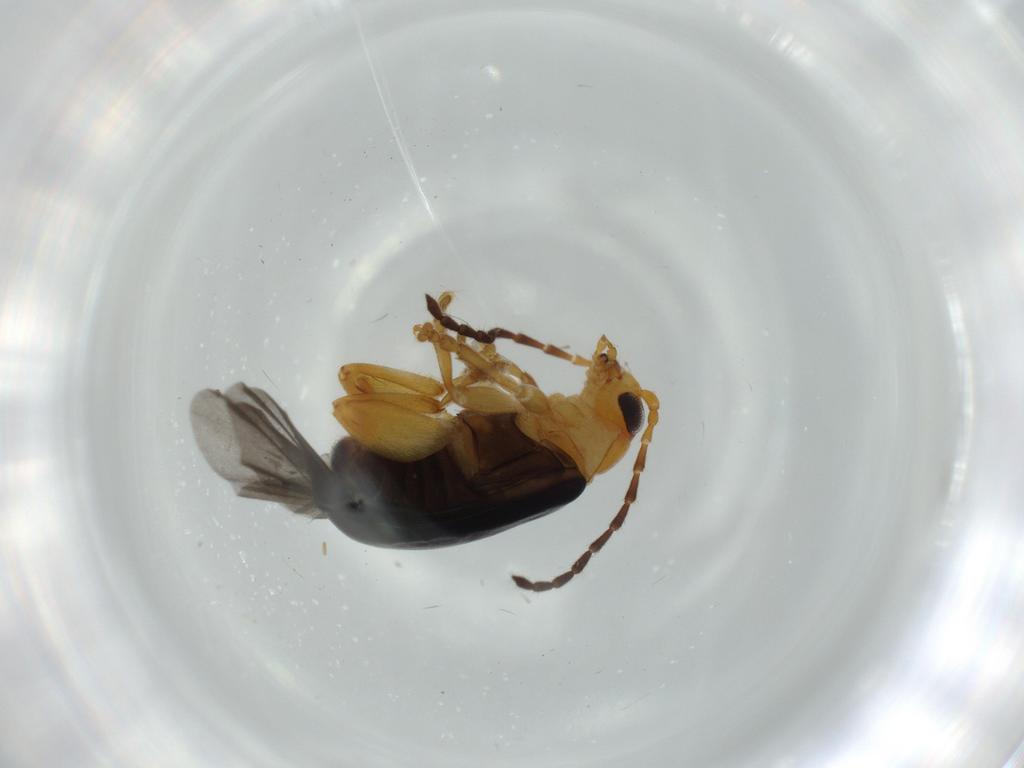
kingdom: Animalia
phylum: Arthropoda
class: Insecta
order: Coleoptera
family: Chrysomelidae
